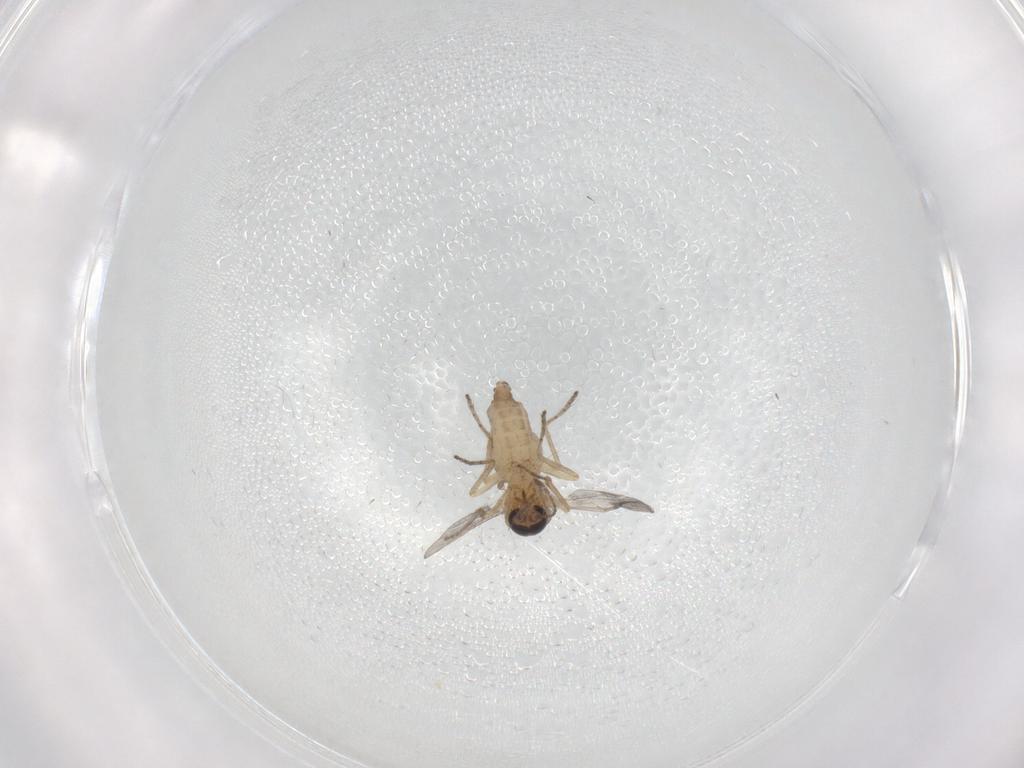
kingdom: Animalia
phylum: Arthropoda
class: Insecta
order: Diptera
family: Ceratopogonidae
